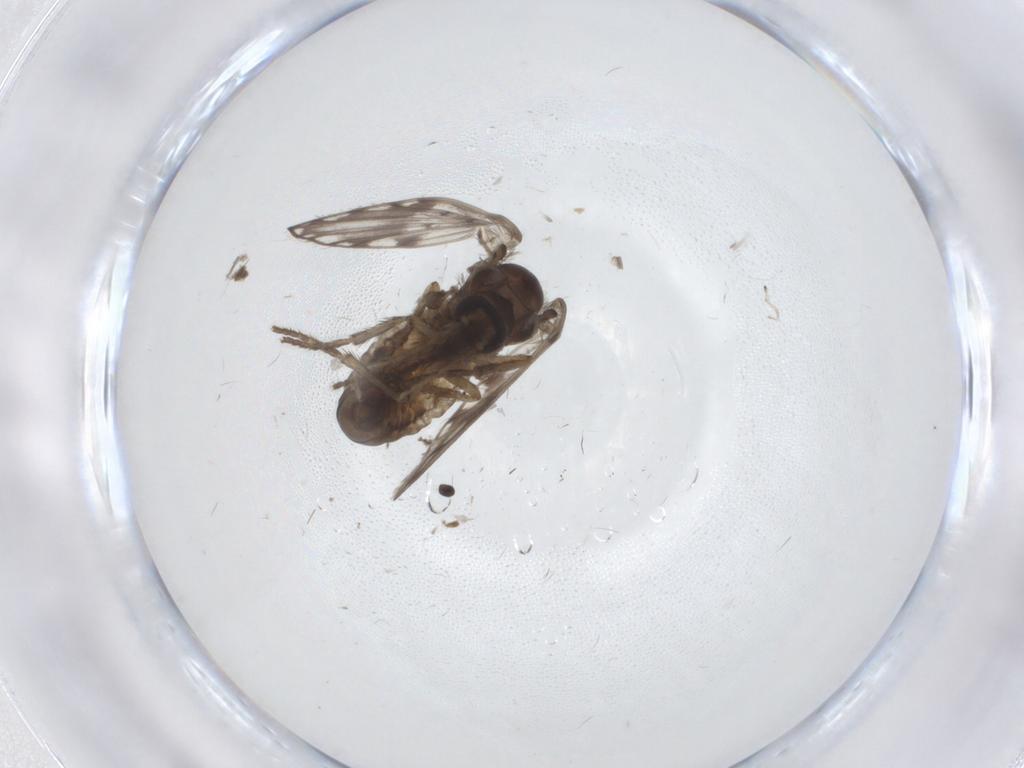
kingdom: Animalia
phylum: Arthropoda
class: Insecta
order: Diptera
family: Psychodidae
